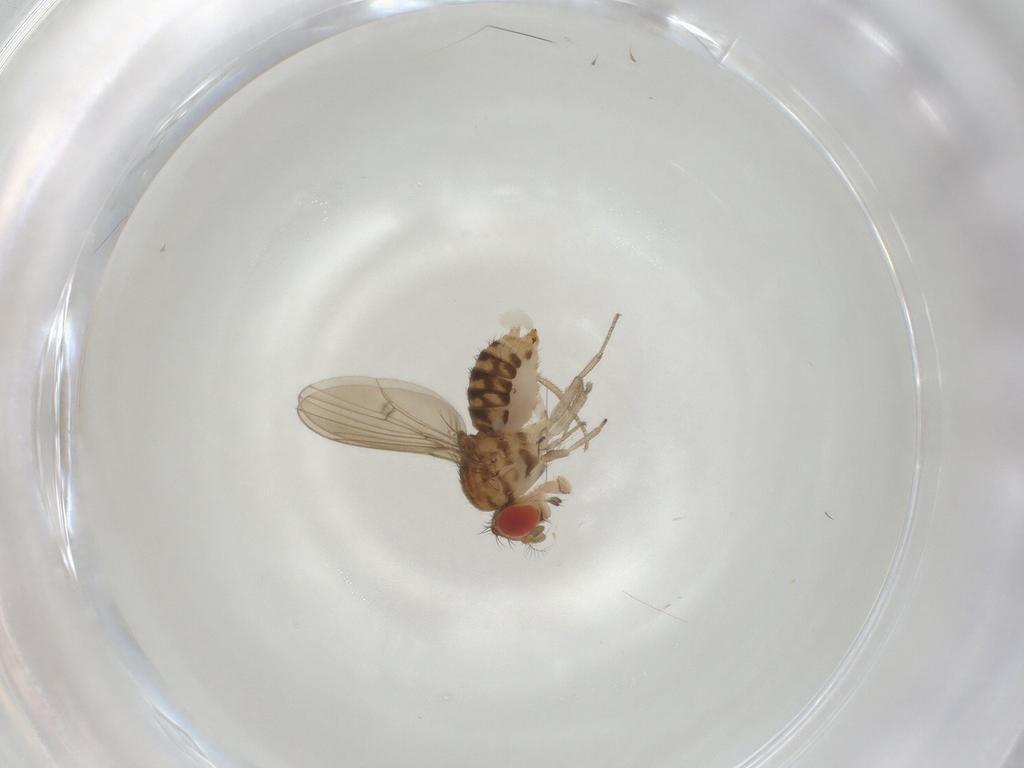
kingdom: Animalia
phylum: Arthropoda
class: Insecta
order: Diptera
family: Drosophilidae
